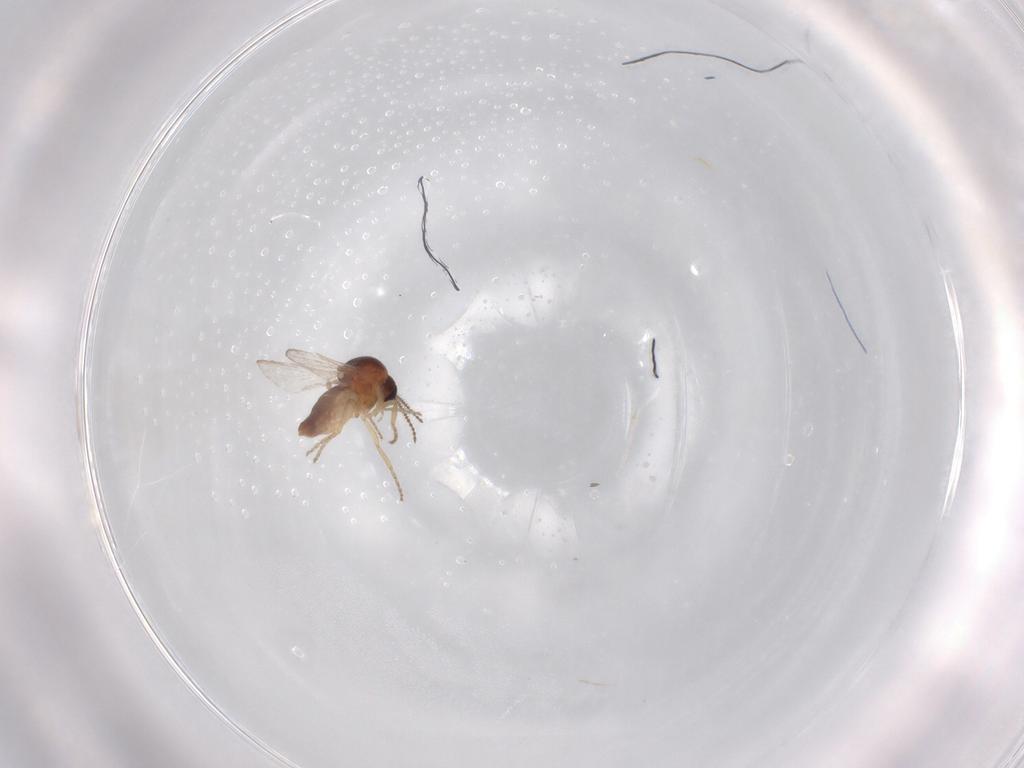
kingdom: Animalia
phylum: Arthropoda
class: Insecta
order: Diptera
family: Ceratopogonidae
